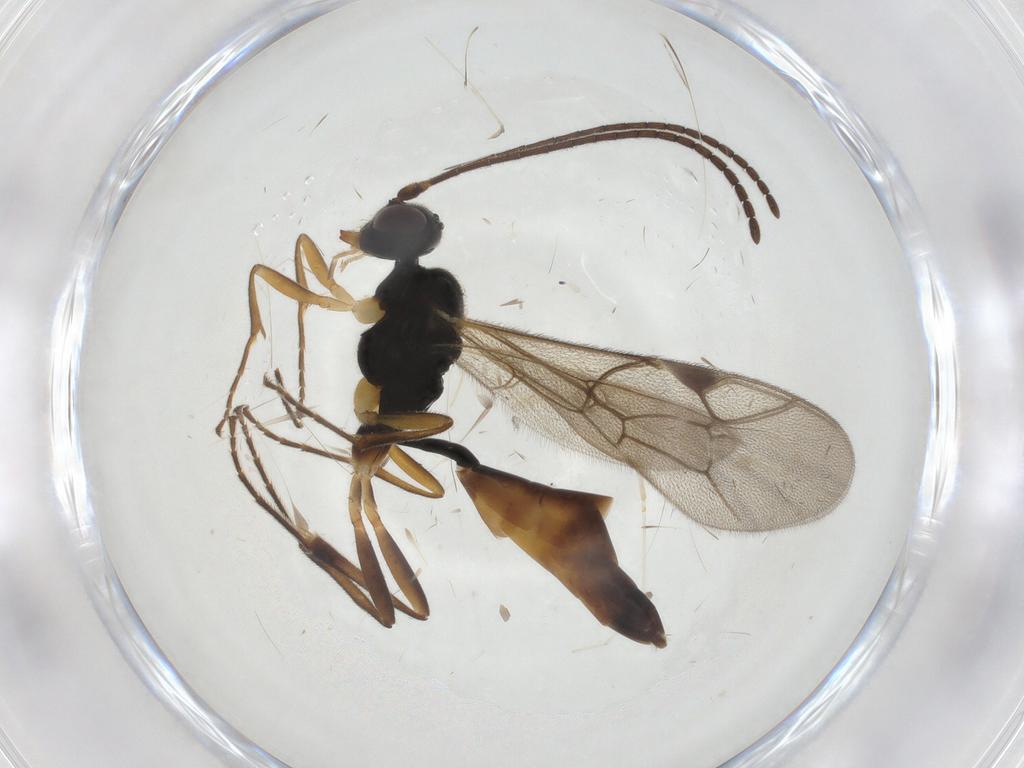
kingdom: Animalia
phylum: Arthropoda
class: Insecta
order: Hymenoptera
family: Ichneumonidae
